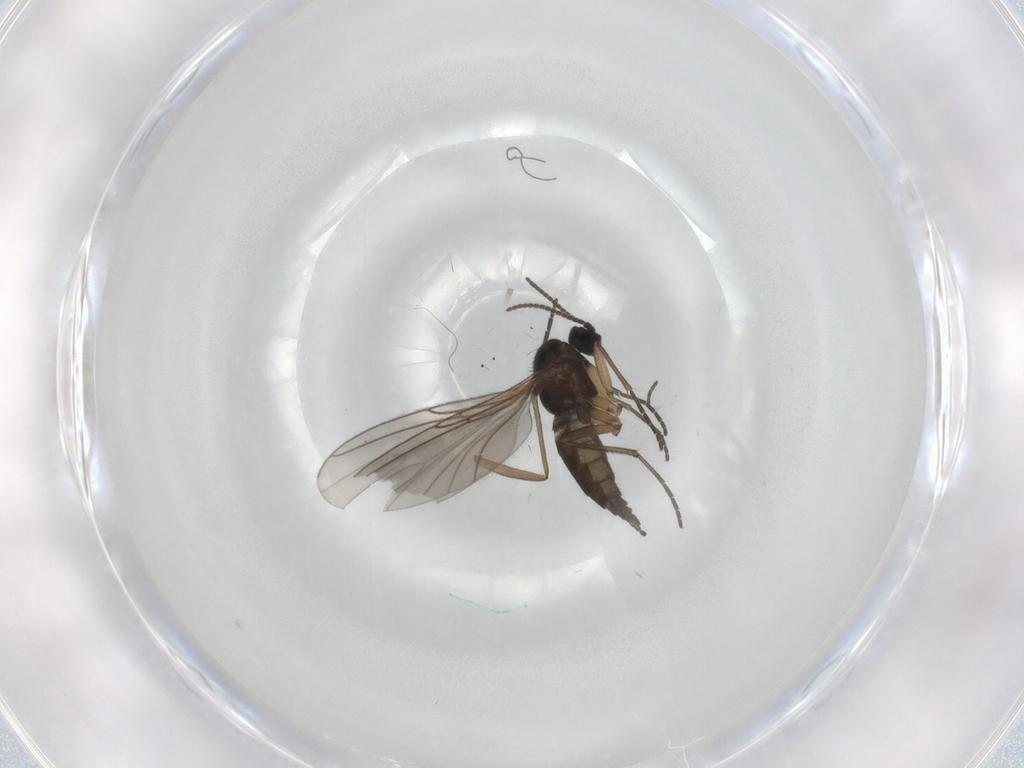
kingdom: Animalia
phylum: Arthropoda
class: Insecta
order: Diptera
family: Sciaridae
